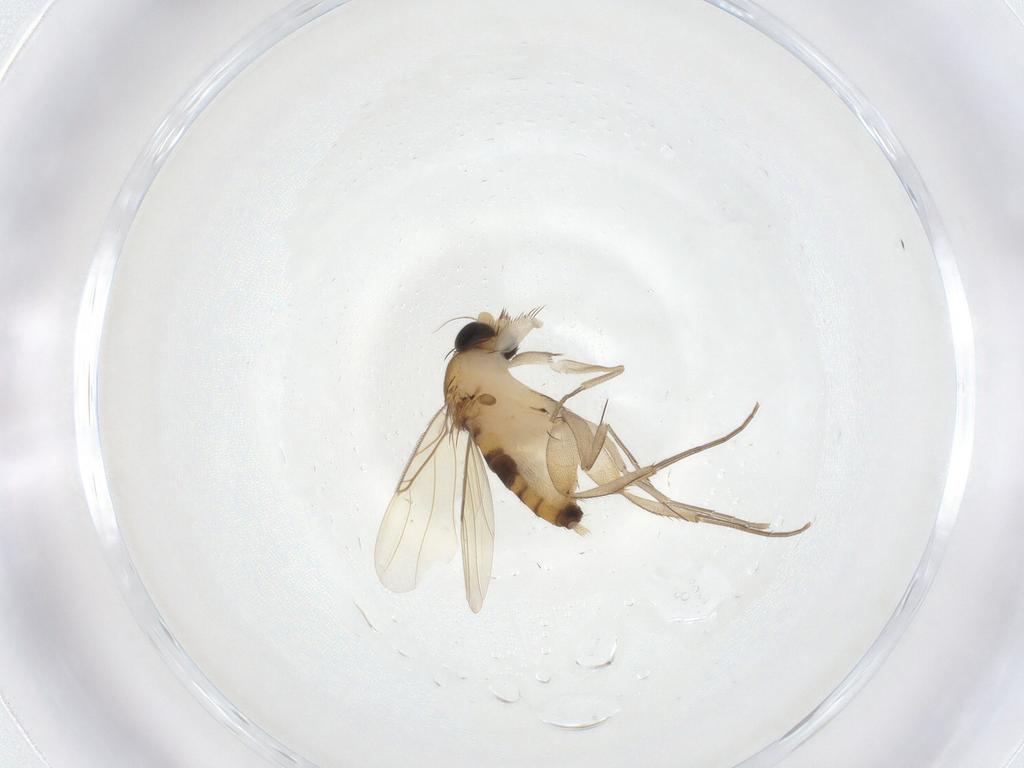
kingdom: Animalia
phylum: Arthropoda
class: Insecta
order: Diptera
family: Phoridae
